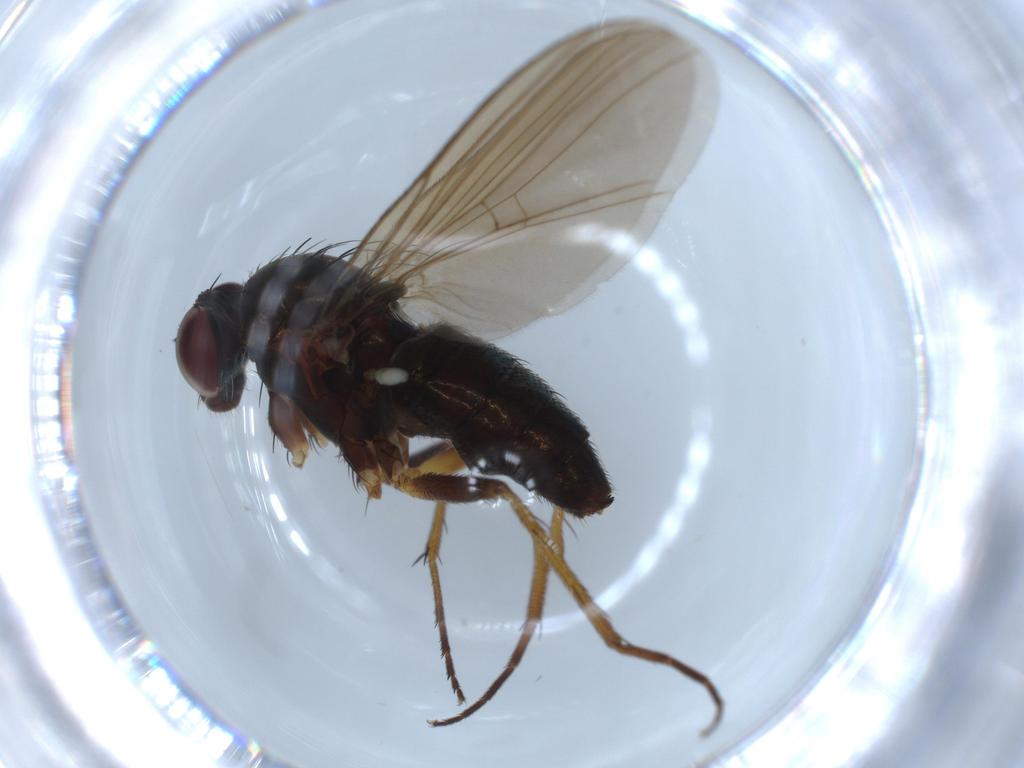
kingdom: Animalia
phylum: Arthropoda
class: Insecta
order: Diptera
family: Dolichopodidae
